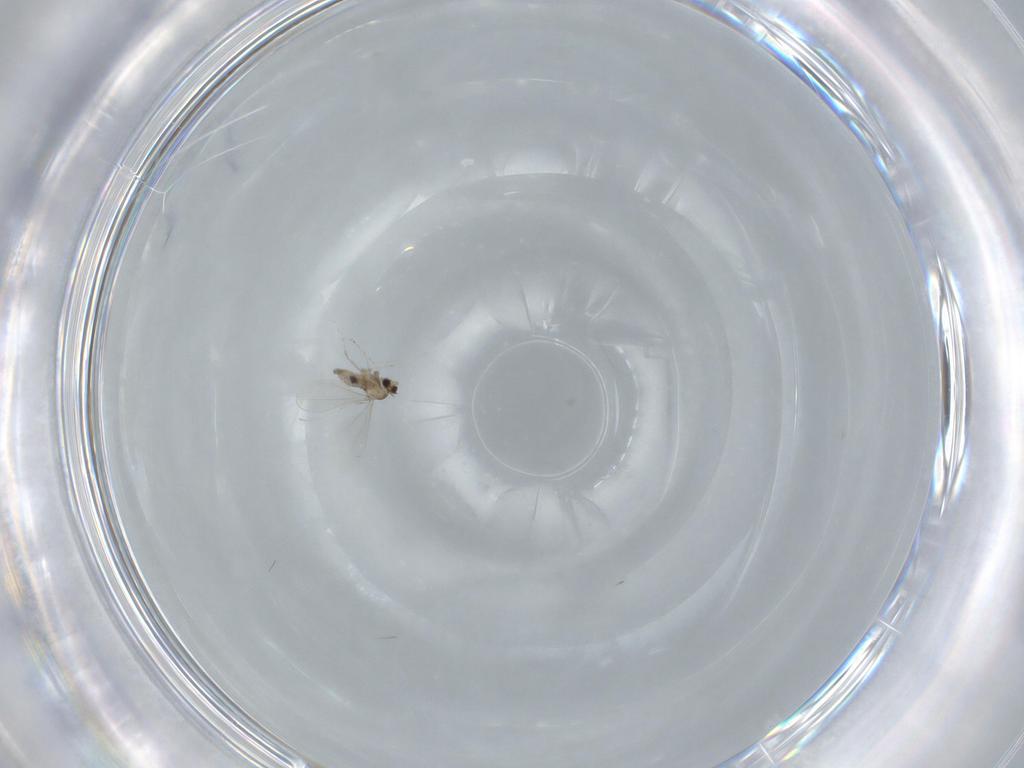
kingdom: Animalia
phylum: Arthropoda
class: Insecta
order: Diptera
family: Cecidomyiidae
